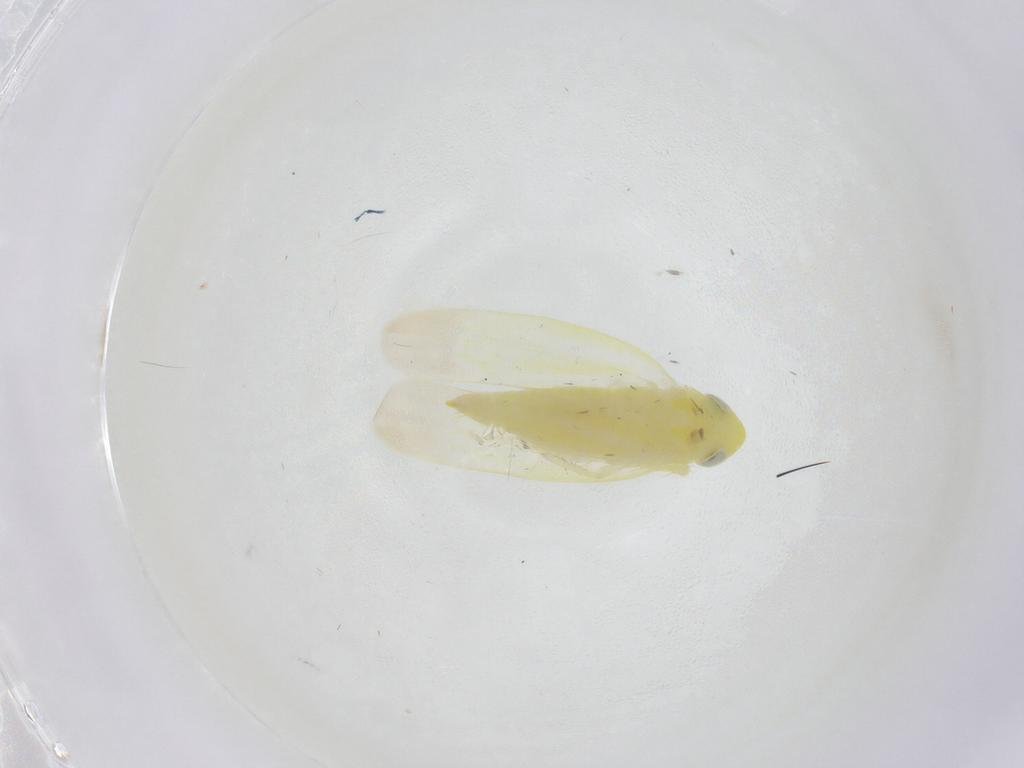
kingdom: Animalia
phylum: Arthropoda
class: Insecta
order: Hemiptera
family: Cicadellidae
